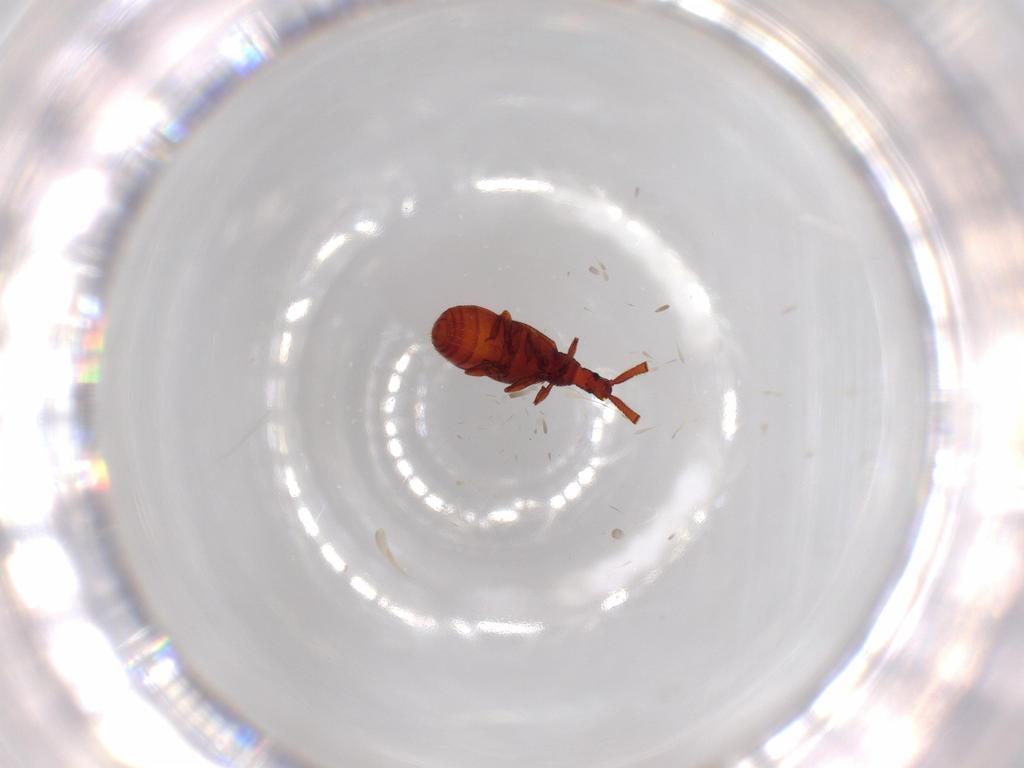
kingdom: Animalia
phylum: Arthropoda
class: Insecta
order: Coleoptera
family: Staphylinidae
